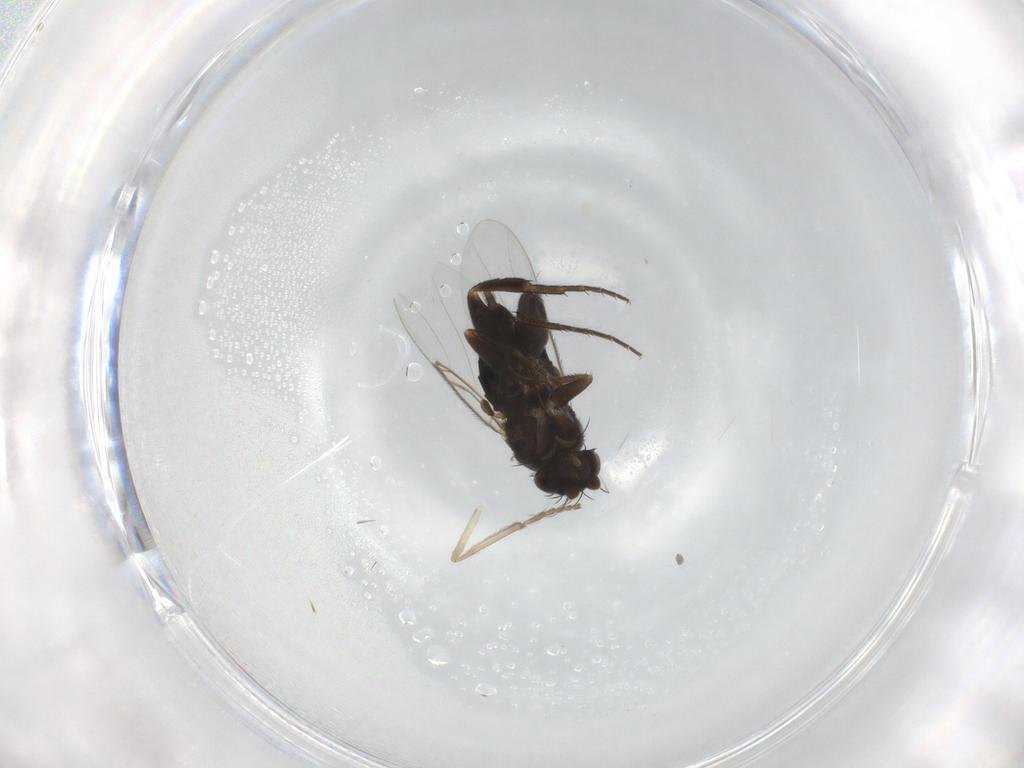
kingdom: Animalia
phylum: Arthropoda
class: Insecta
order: Diptera
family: Phoridae
